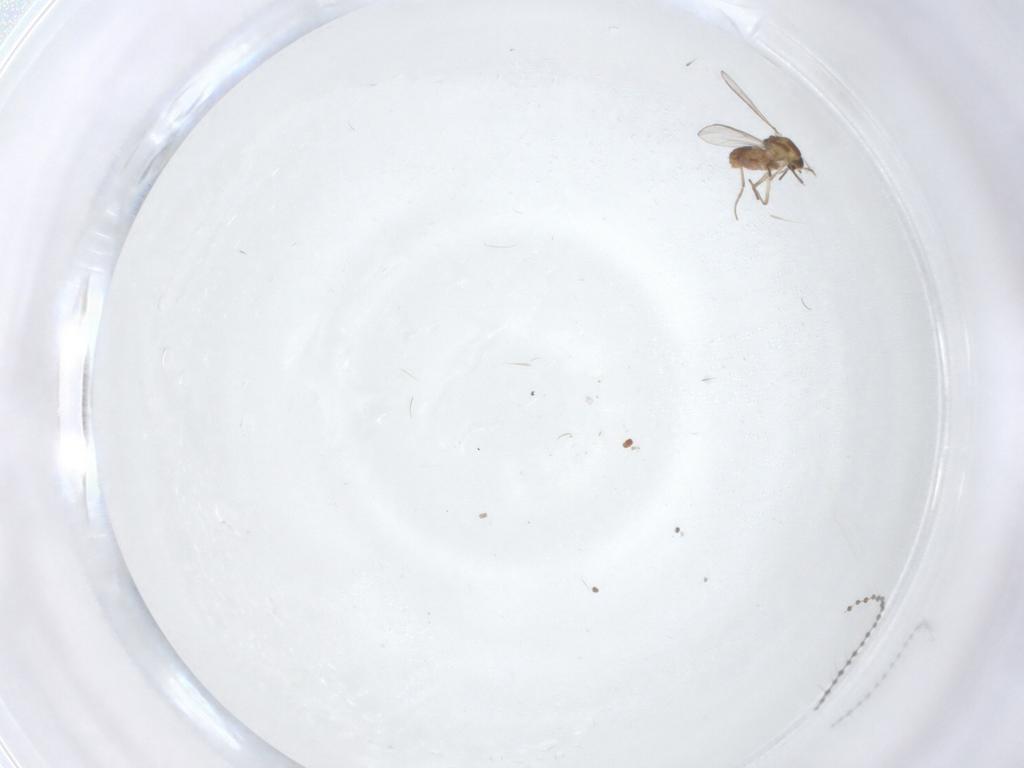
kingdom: Animalia
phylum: Arthropoda
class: Insecta
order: Diptera
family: Chironomidae
